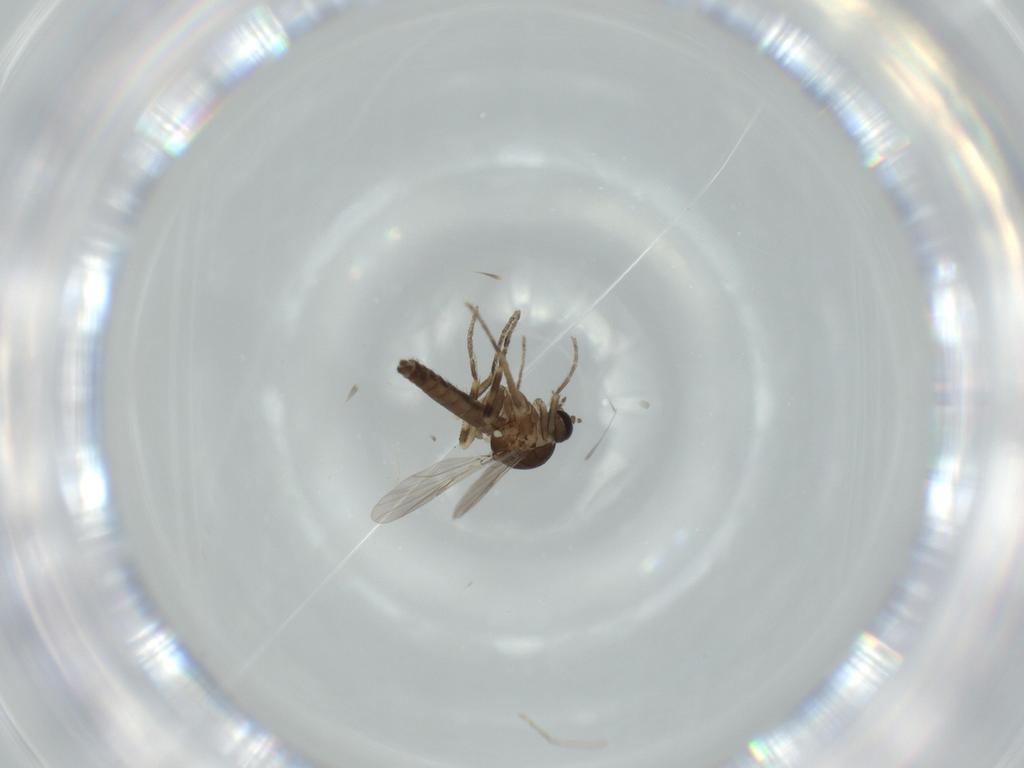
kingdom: Animalia
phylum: Arthropoda
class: Insecta
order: Diptera
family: Ceratopogonidae
